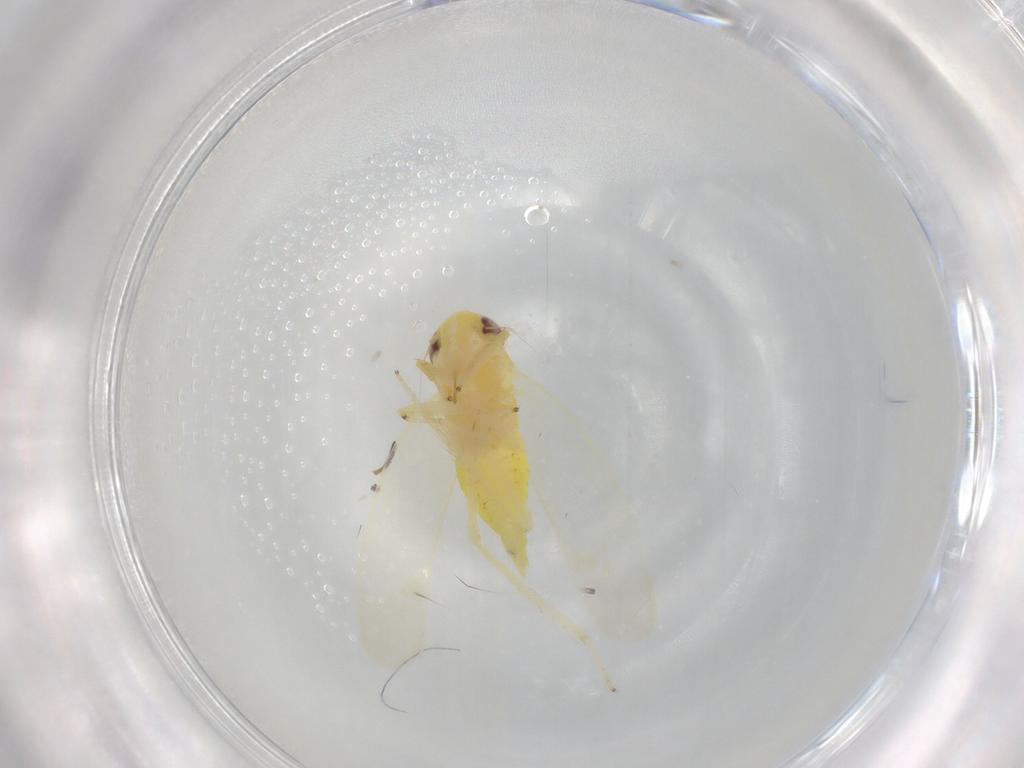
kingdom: Animalia
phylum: Arthropoda
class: Insecta
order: Hemiptera
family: Cicadellidae
